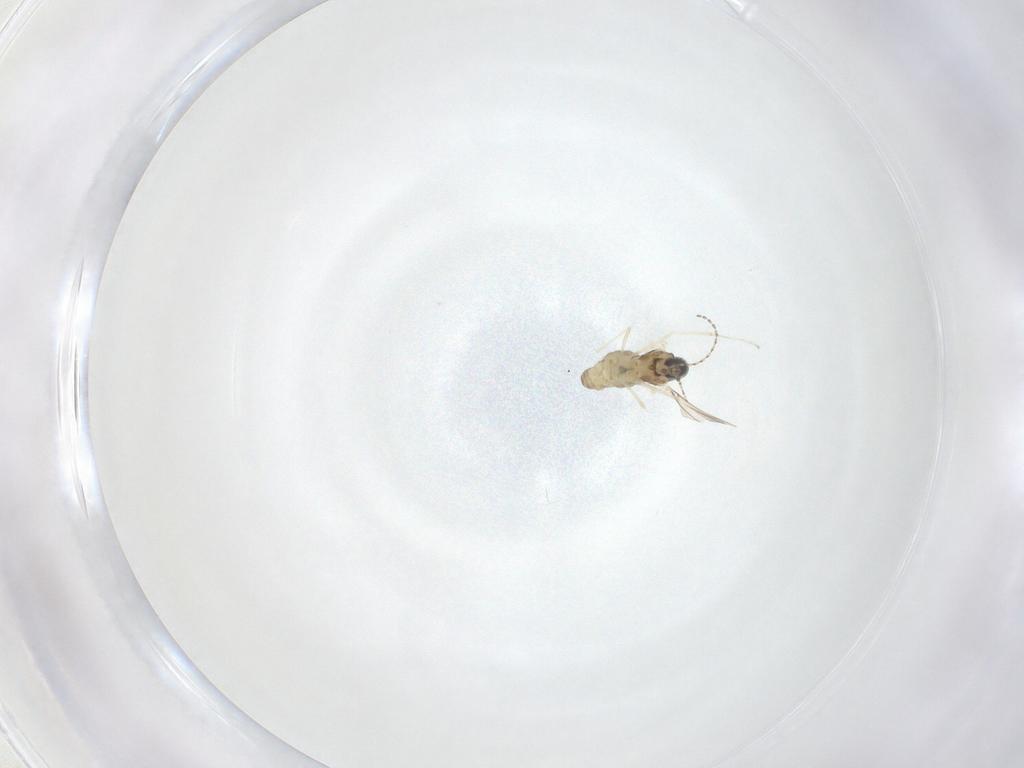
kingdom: Animalia
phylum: Arthropoda
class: Insecta
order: Diptera
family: Cecidomyiidae
